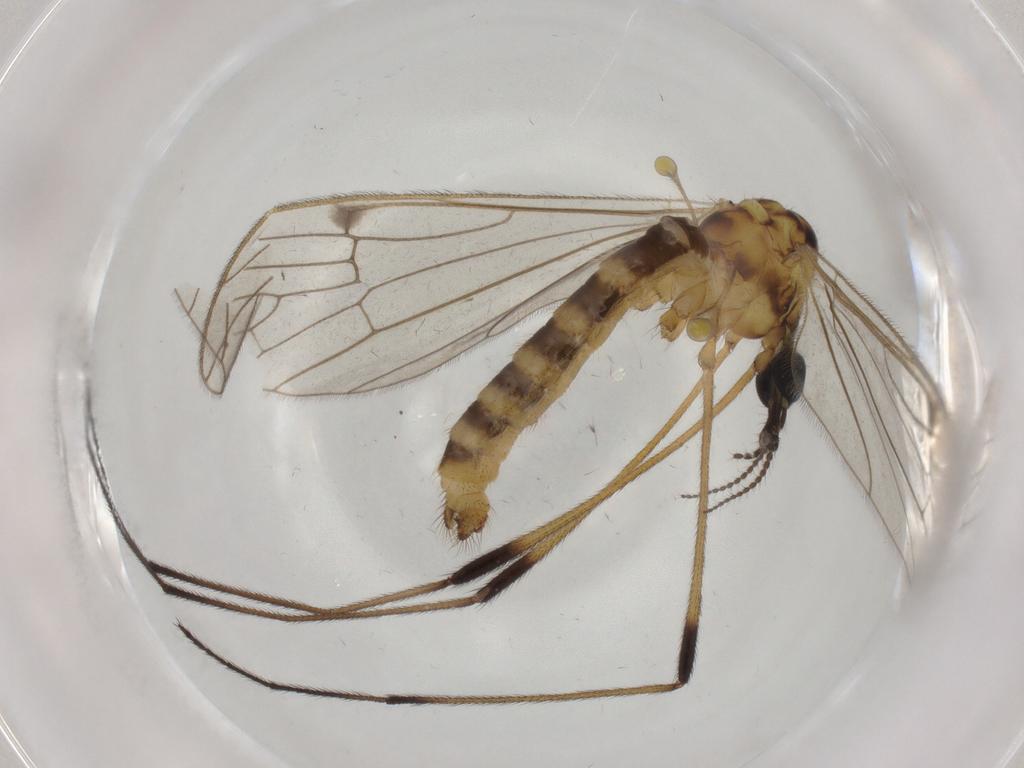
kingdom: Animalia
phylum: Arthropoda
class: Insecta
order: Diptera
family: Limoniidae
